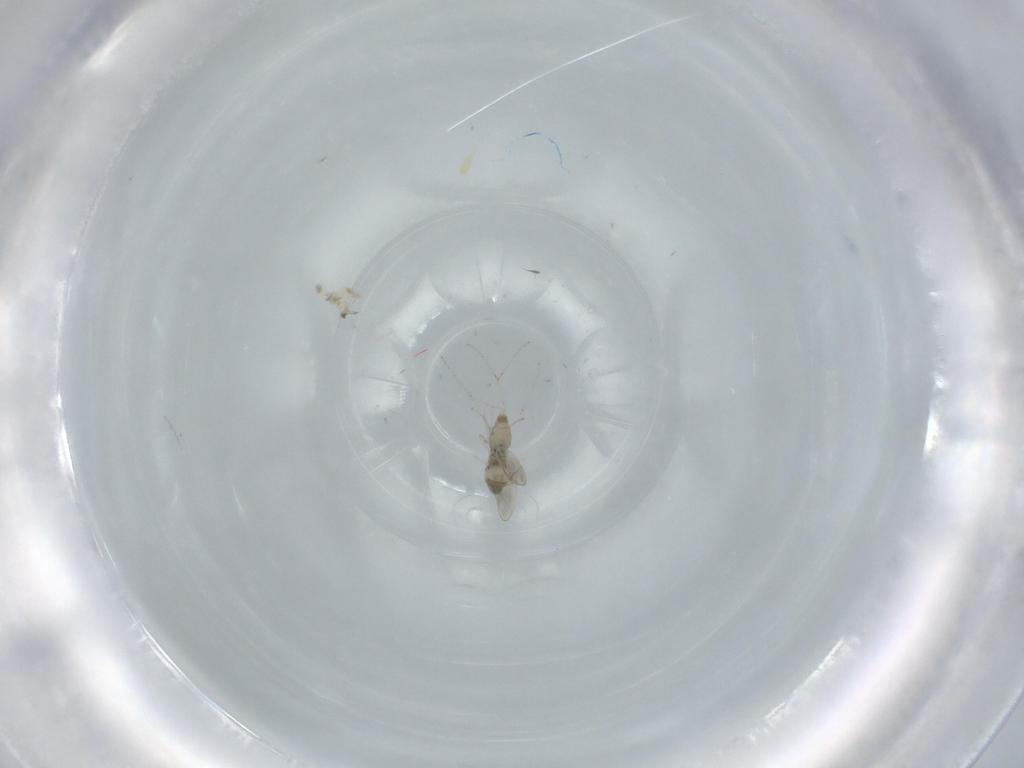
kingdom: Animalia
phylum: Arthropoda
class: Insecta
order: Diptera
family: Cecidomyiidae
